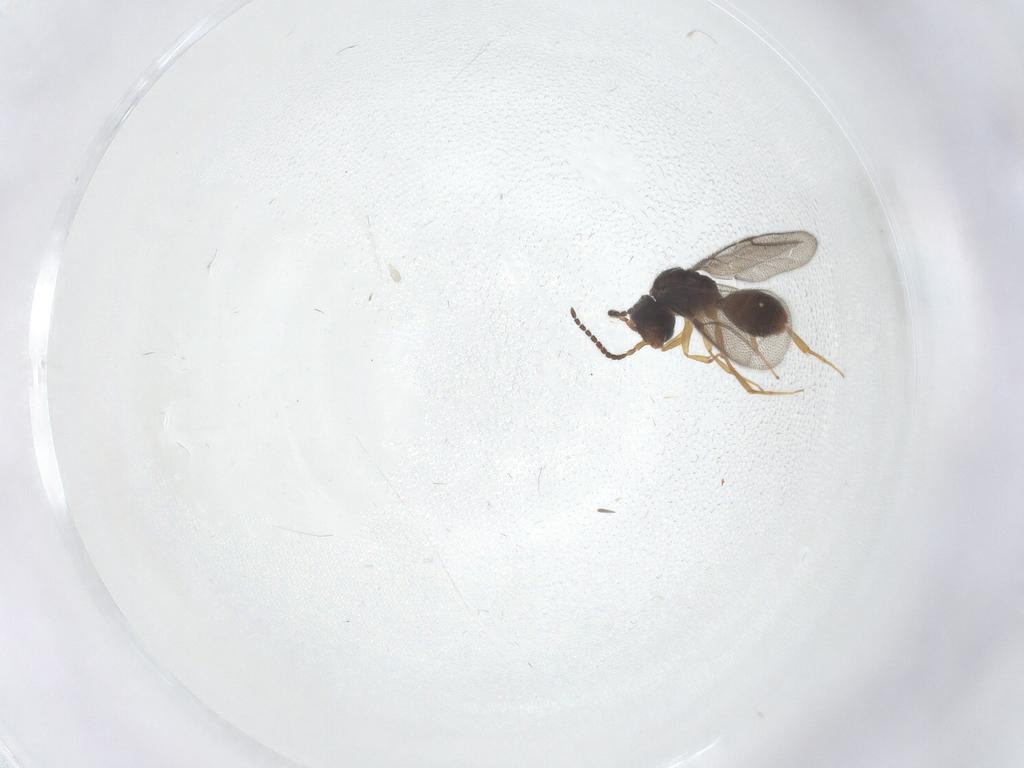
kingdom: Animalia
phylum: Arthropoda
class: Insecta
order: Hymenoptera
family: Bethylidae
